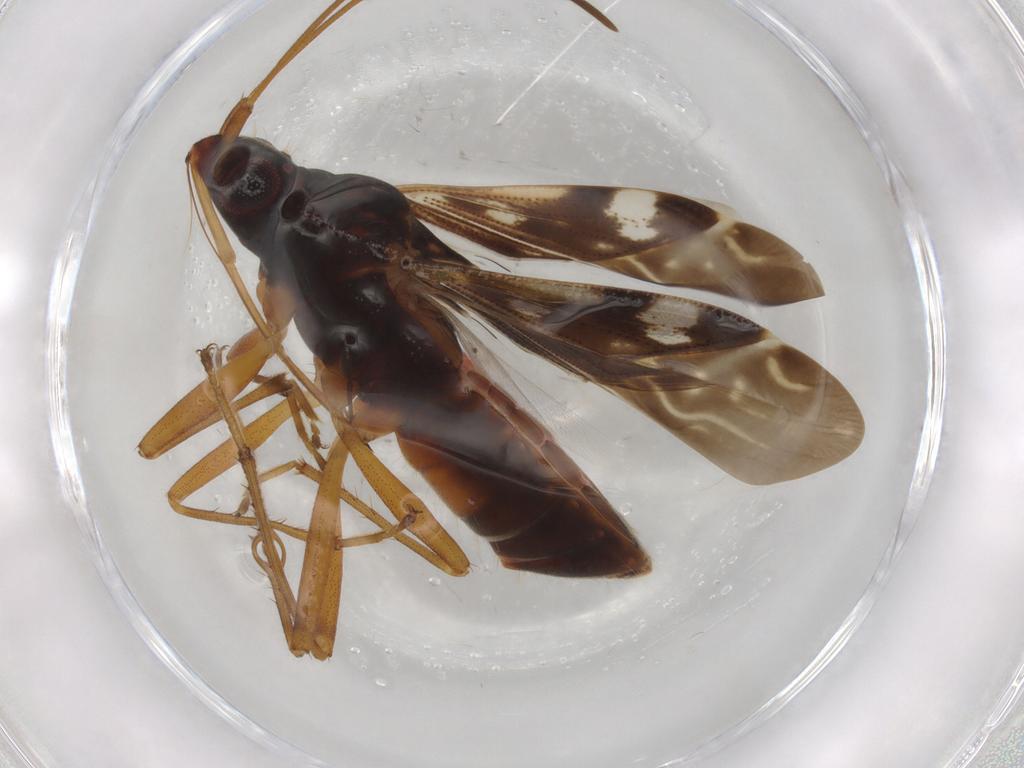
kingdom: Animalia
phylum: Arthropoda
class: Insecta
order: Hemiptera
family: Rhyparochromidae
